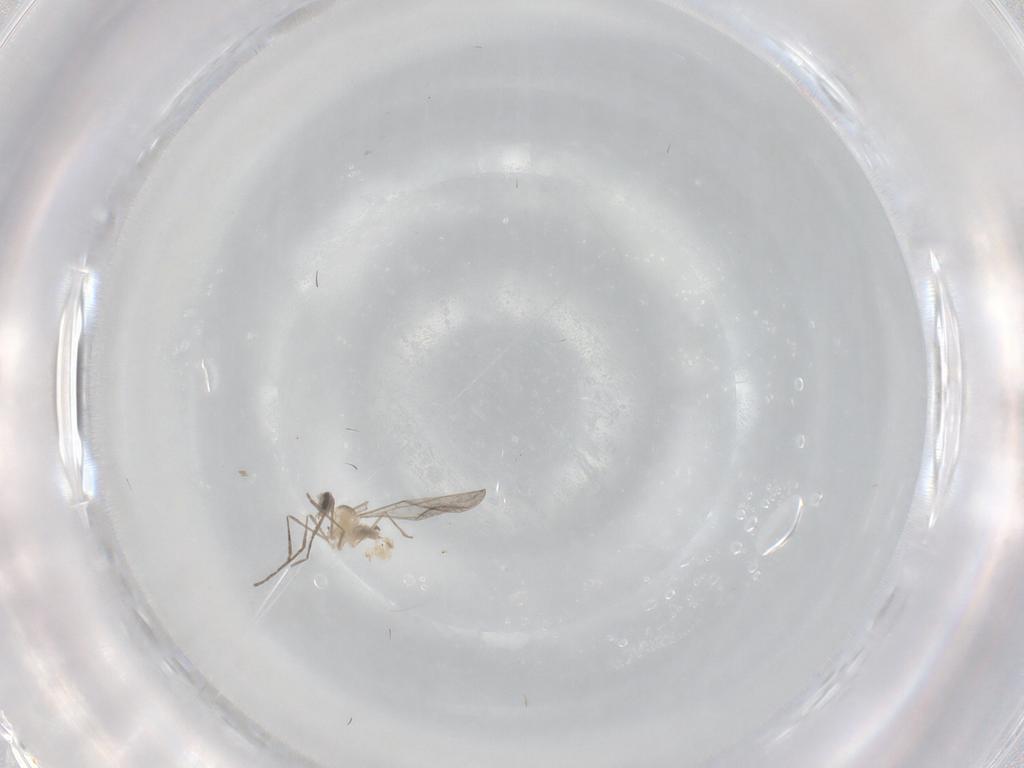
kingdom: Animalia
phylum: Arthropoda
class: Insecta
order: Diptera
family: Cecidomyiidae
